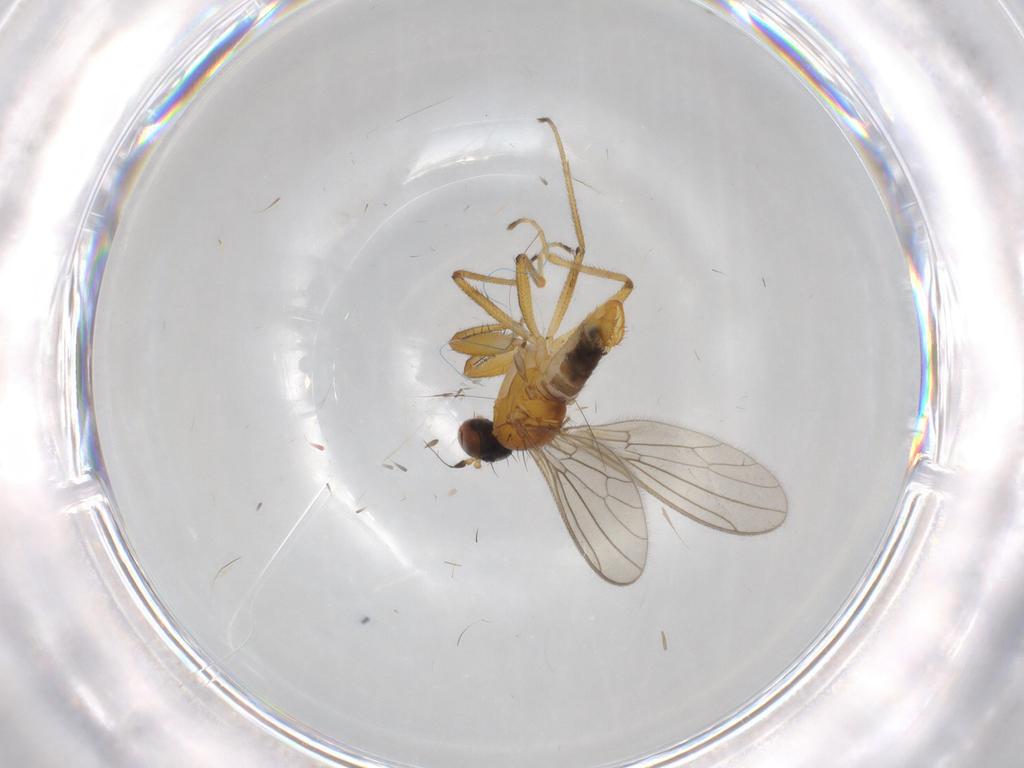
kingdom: Animalia
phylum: Arthropoda
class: Insecta
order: Diptera
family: Empididae
